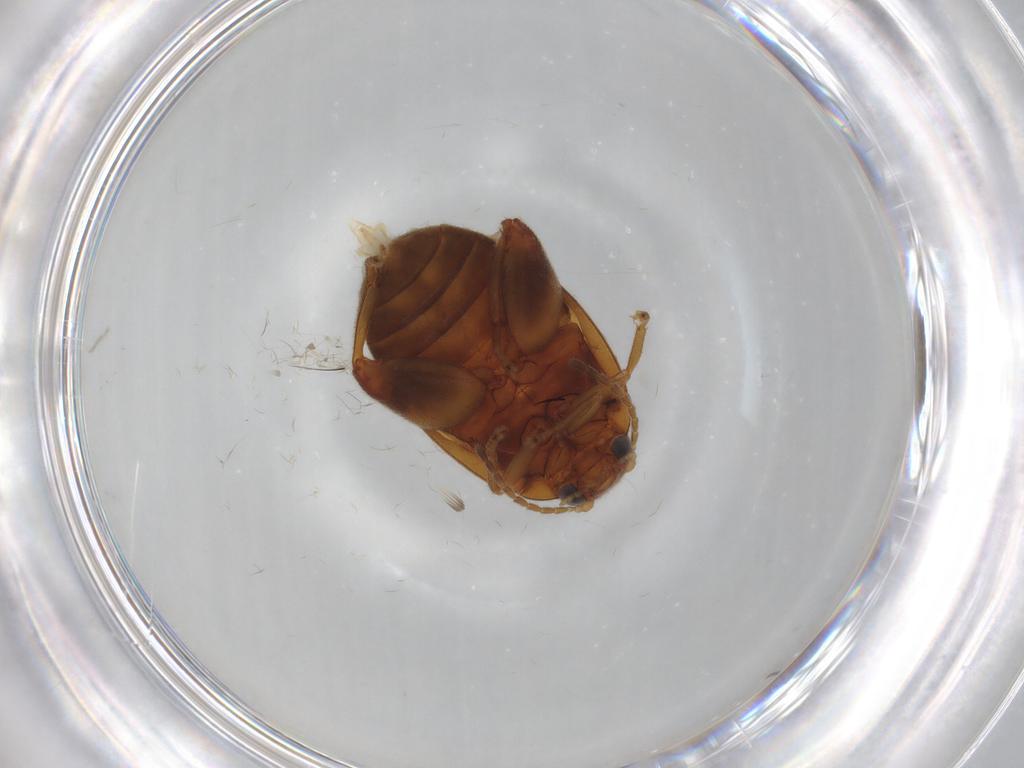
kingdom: Animalia
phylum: Arthropoda
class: Insecta
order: Coleoptera
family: Scirtidae
